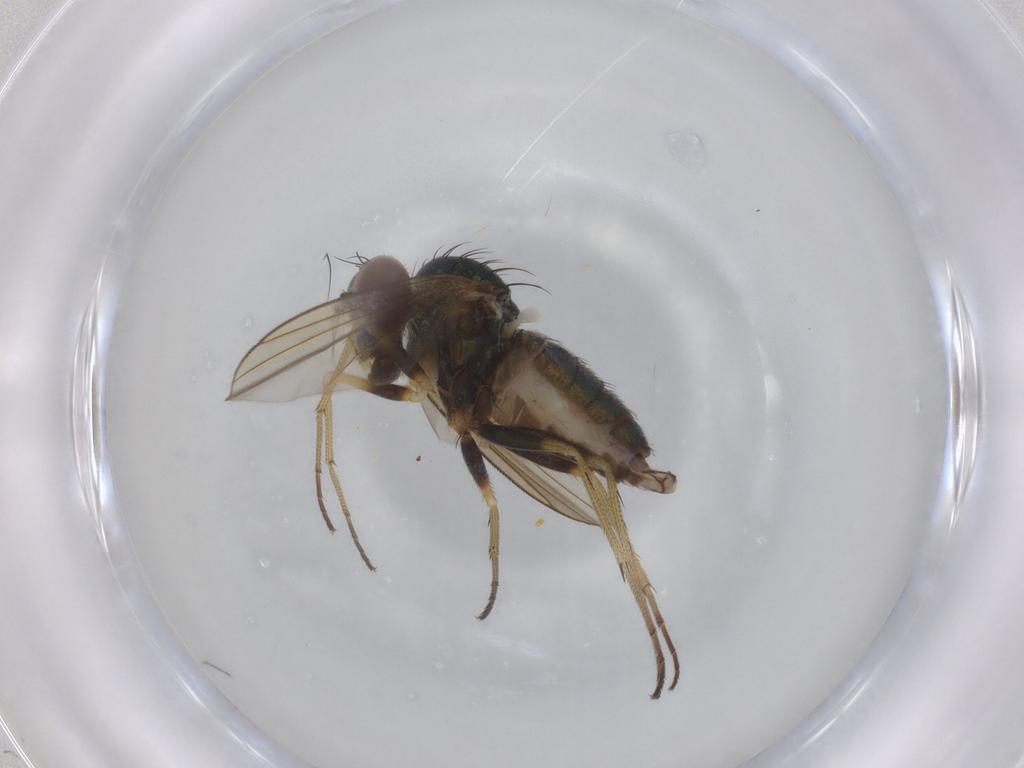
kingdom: Animalia
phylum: Arthropoda
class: Insecta
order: Diptera
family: Dolichopodidae
